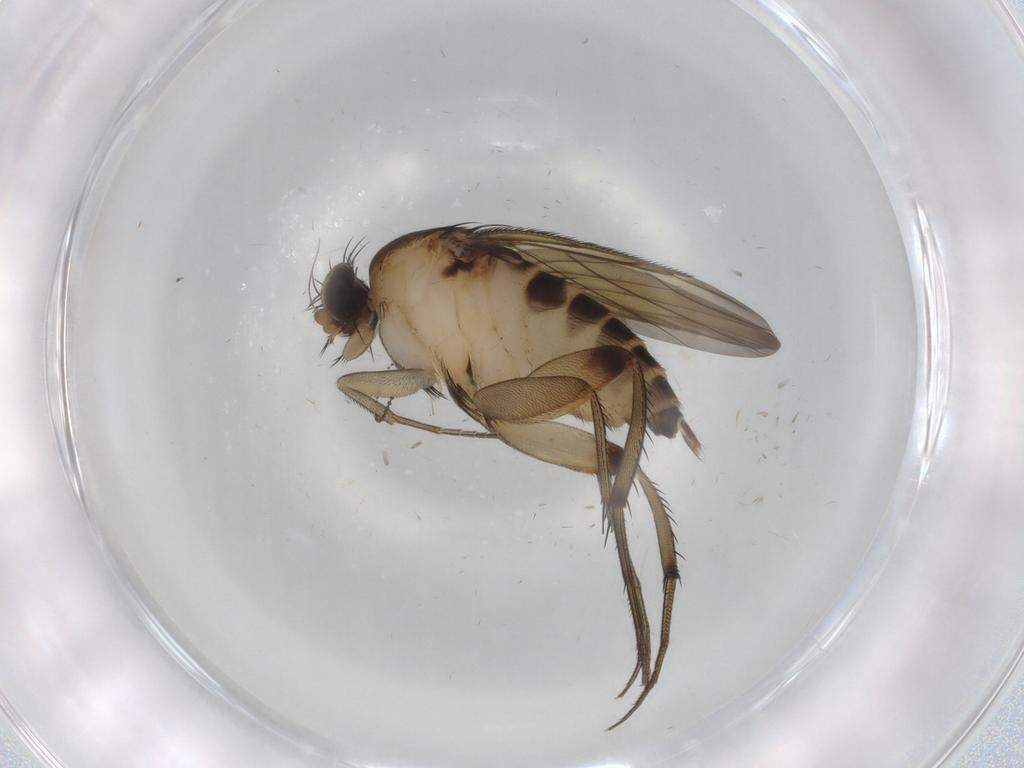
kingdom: Animalia
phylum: Arthropoda
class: Insecta
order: Diptera
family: Phoridae
